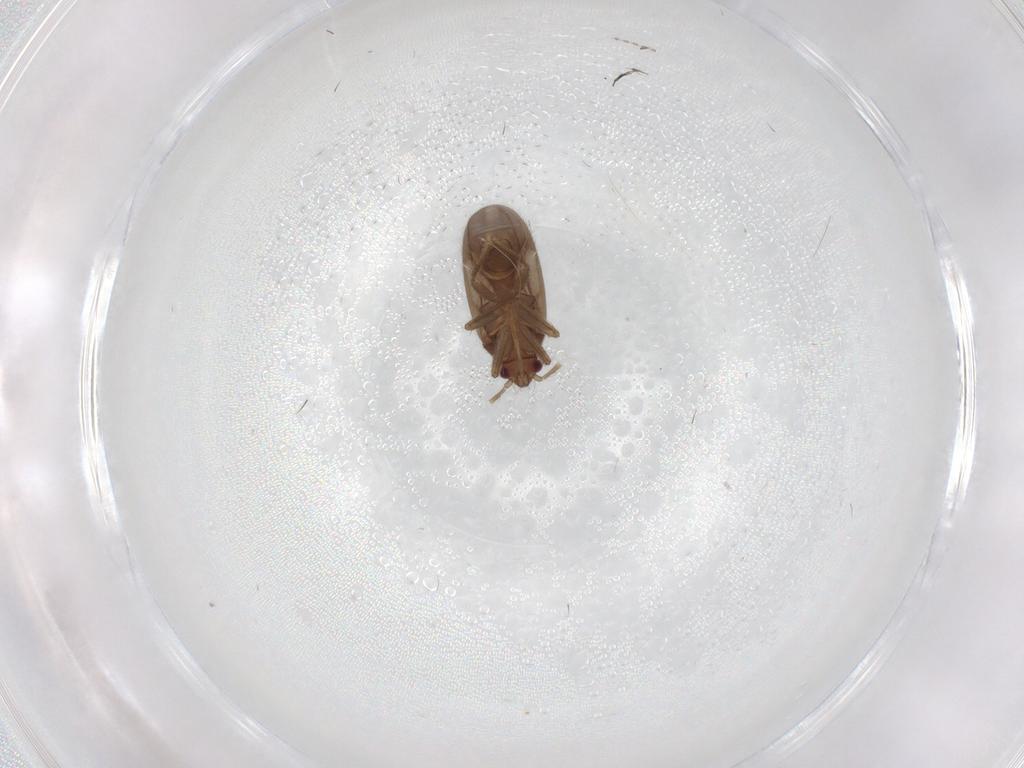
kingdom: Animalia
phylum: Arthropoda
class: Insecta
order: Hemiptera
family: Ceratocombidae
